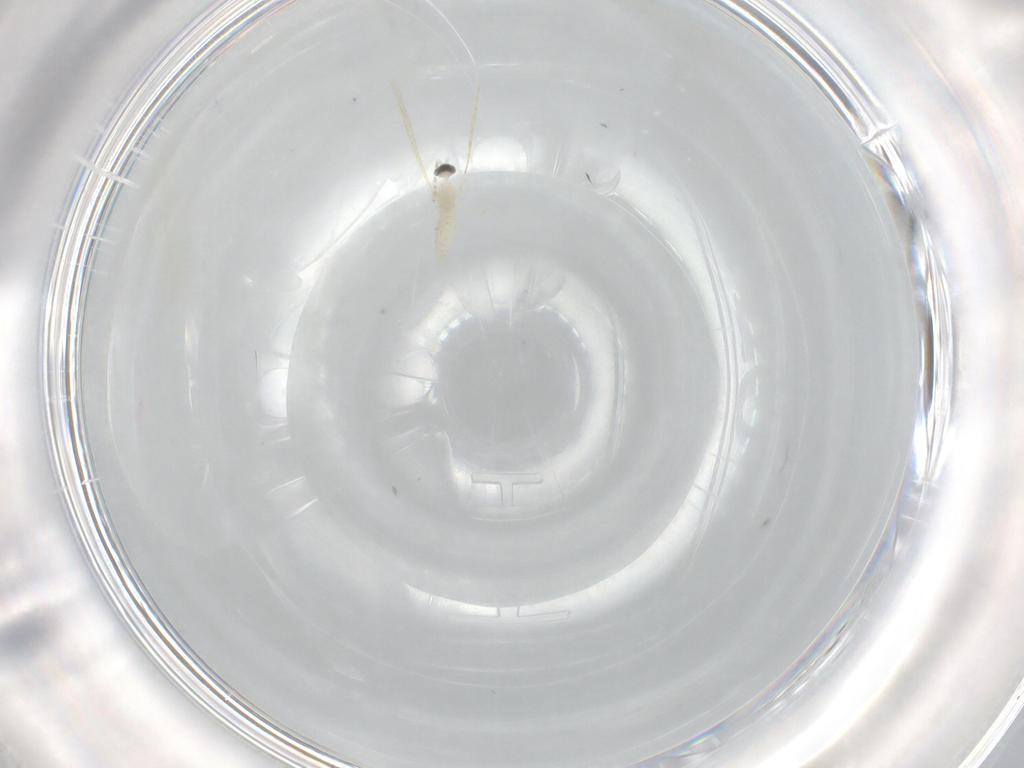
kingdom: Animalia
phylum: Arthropoda
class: Insecta
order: Diptera
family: Cecidomyiidae
